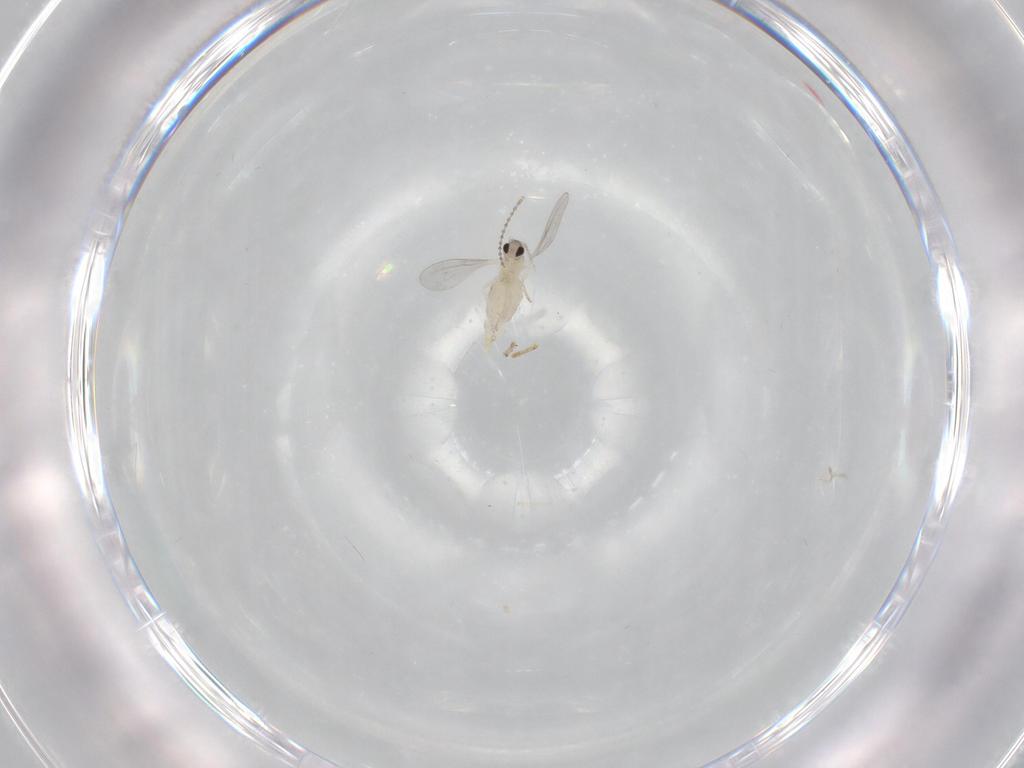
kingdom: Animalia
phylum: Arthropoda
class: Insecta
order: Diptera
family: Cecidomyiidae
